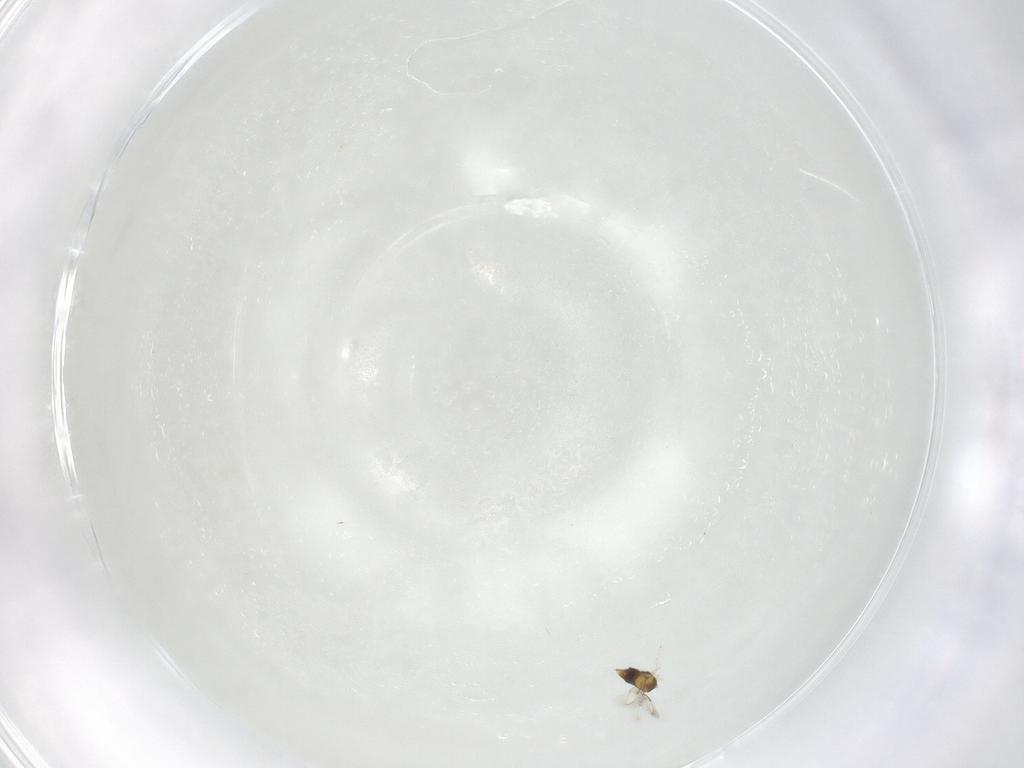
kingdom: Animalia
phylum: Arthropoda
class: Insecta
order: Hymenoptera
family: Aphelinidae
